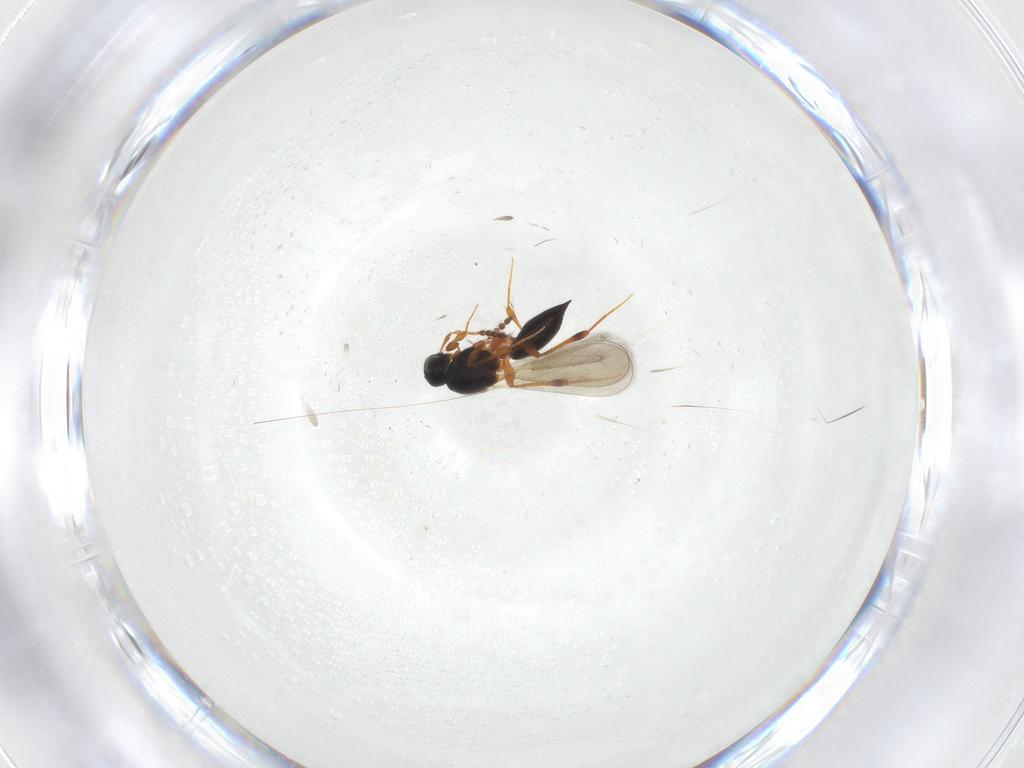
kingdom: Animalia
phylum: Arthropoda
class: Insecta
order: Hymenoptera
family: Platygastridae
